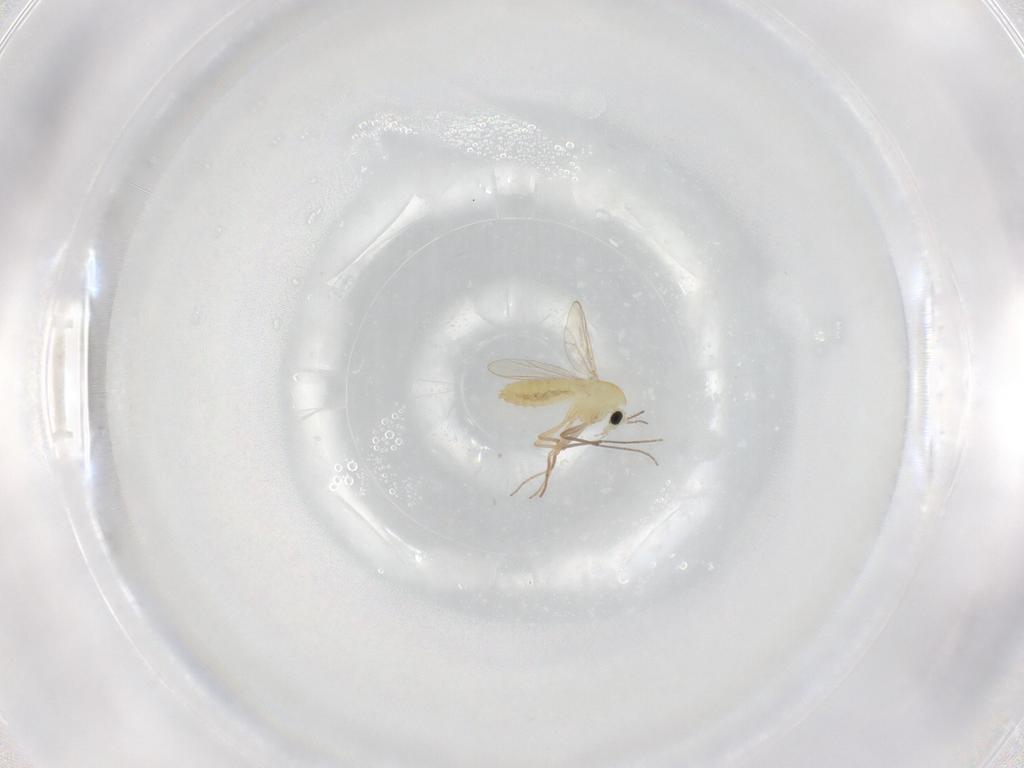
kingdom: Animalia
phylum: Arthropoda
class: Insecta
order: Diptera
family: Chironomidae
